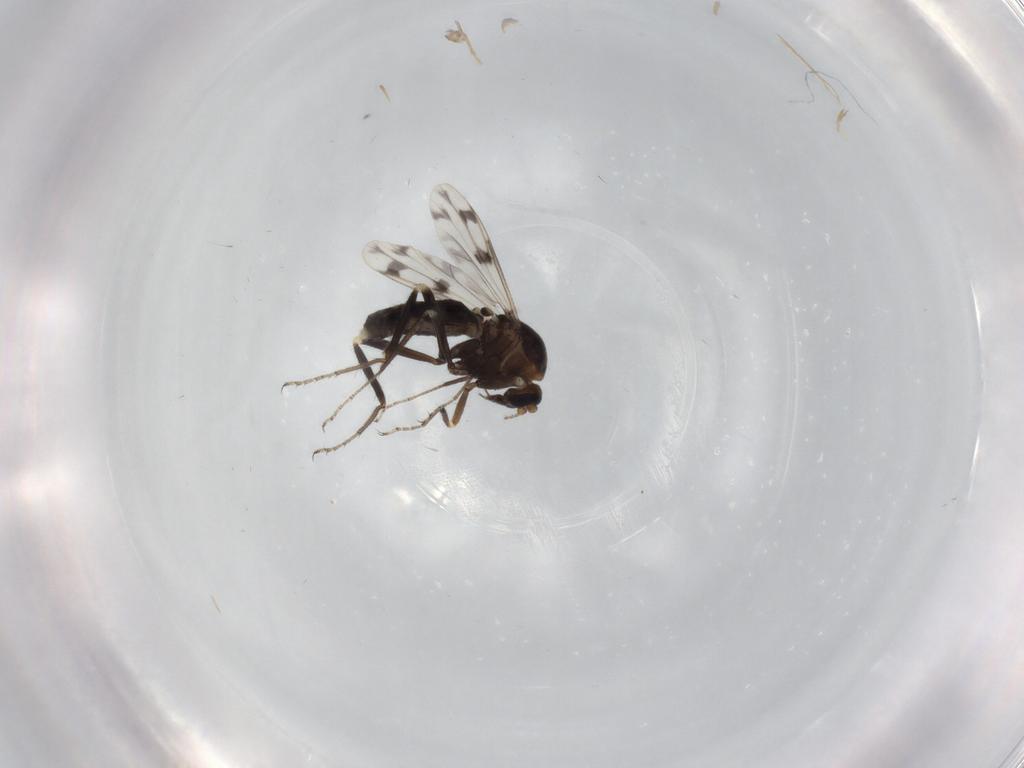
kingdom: Animalia
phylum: Arthropoda
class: Insecta
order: Diptera
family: Ceratopogonidae
